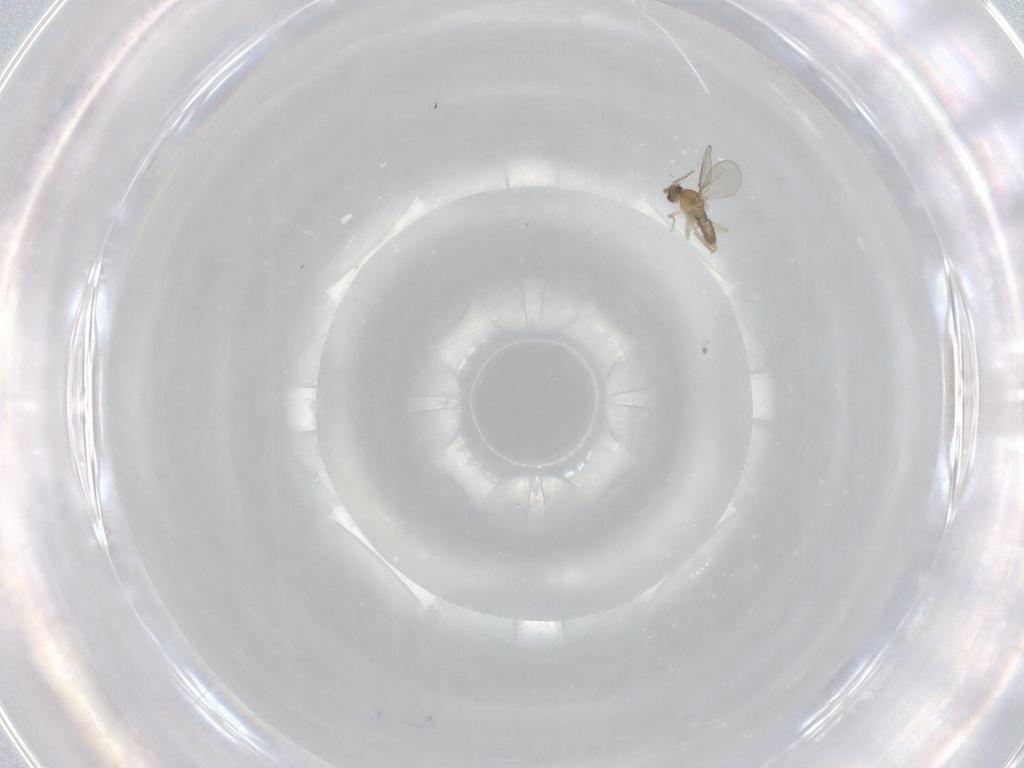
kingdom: Animalia
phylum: Arthropoda
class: Insecta
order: Diptera
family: Cecidomyiidae
